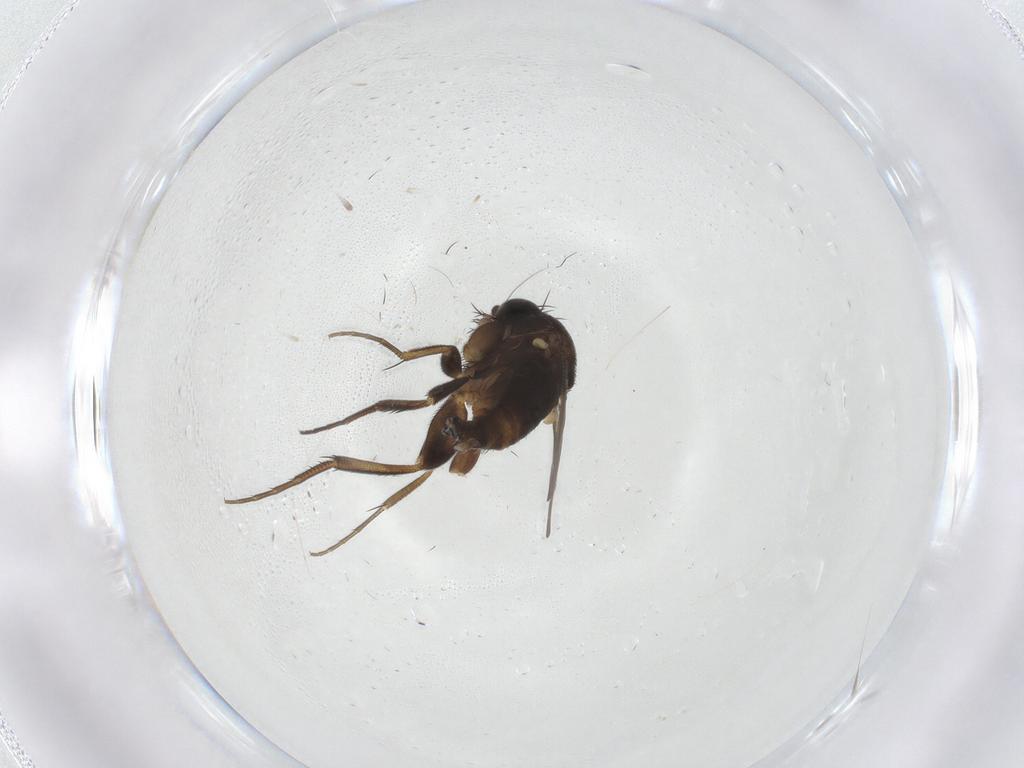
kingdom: Animalia
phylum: Arthropoda
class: Insecta
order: Diptera
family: Phoridae
